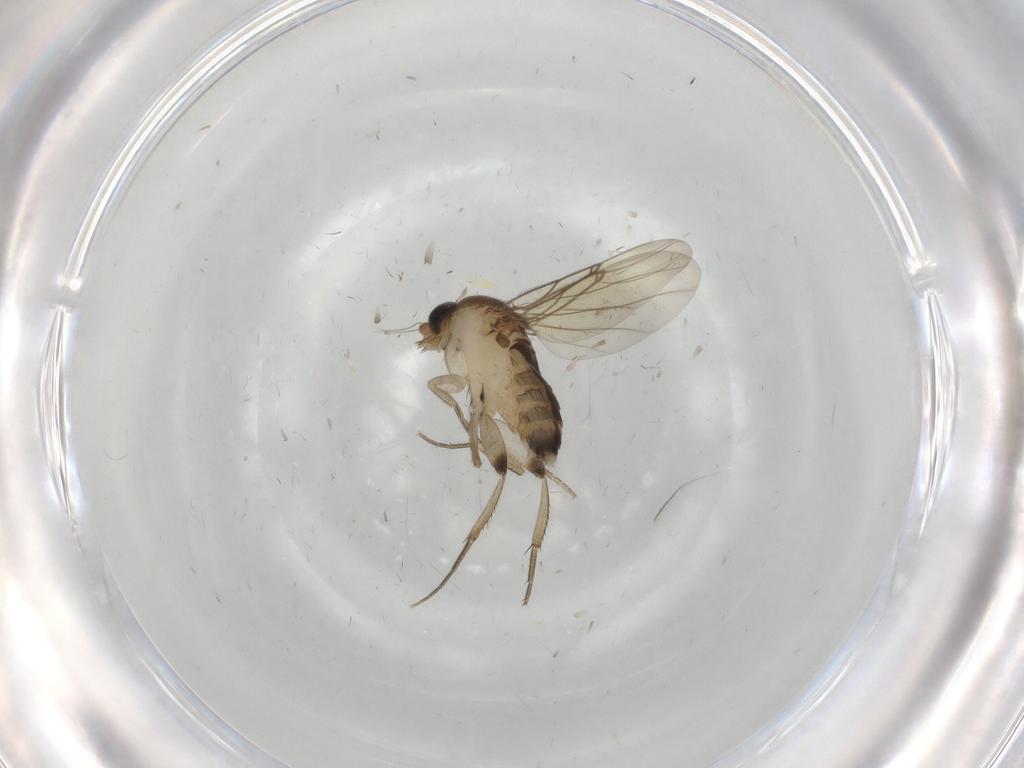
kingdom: Animalia
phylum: Arthropoda
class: Insecta
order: Diptera
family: Phoridae
